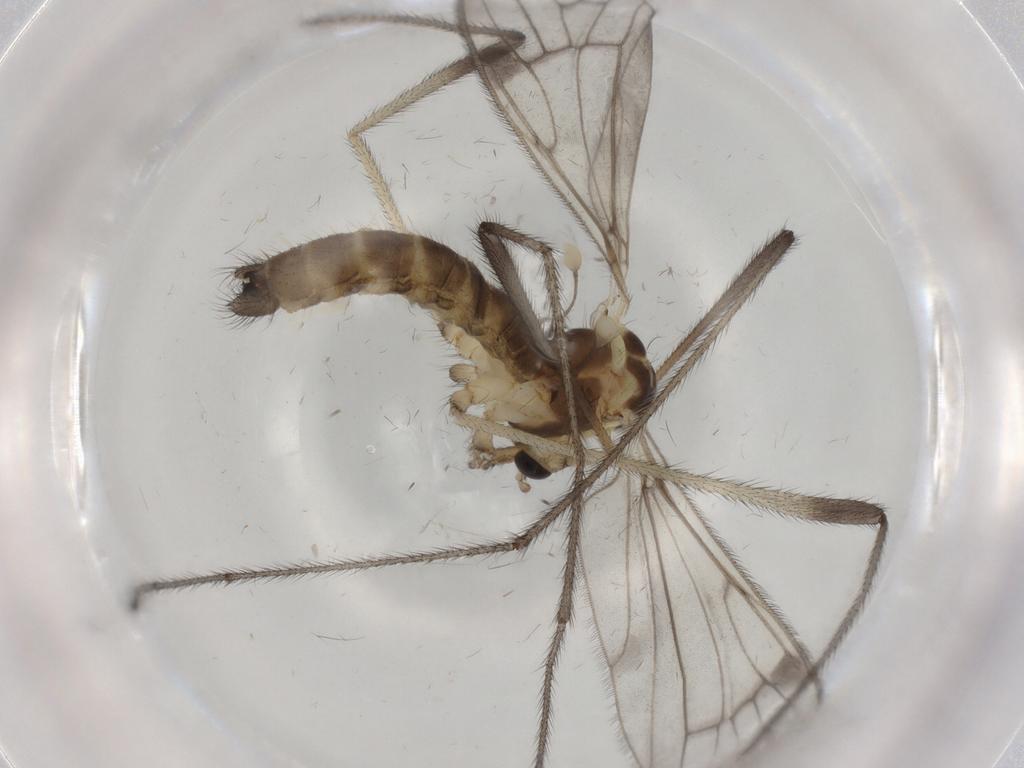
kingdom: Animalia
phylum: Arthropoda
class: Insecta
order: Diptera
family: Limoniidae
